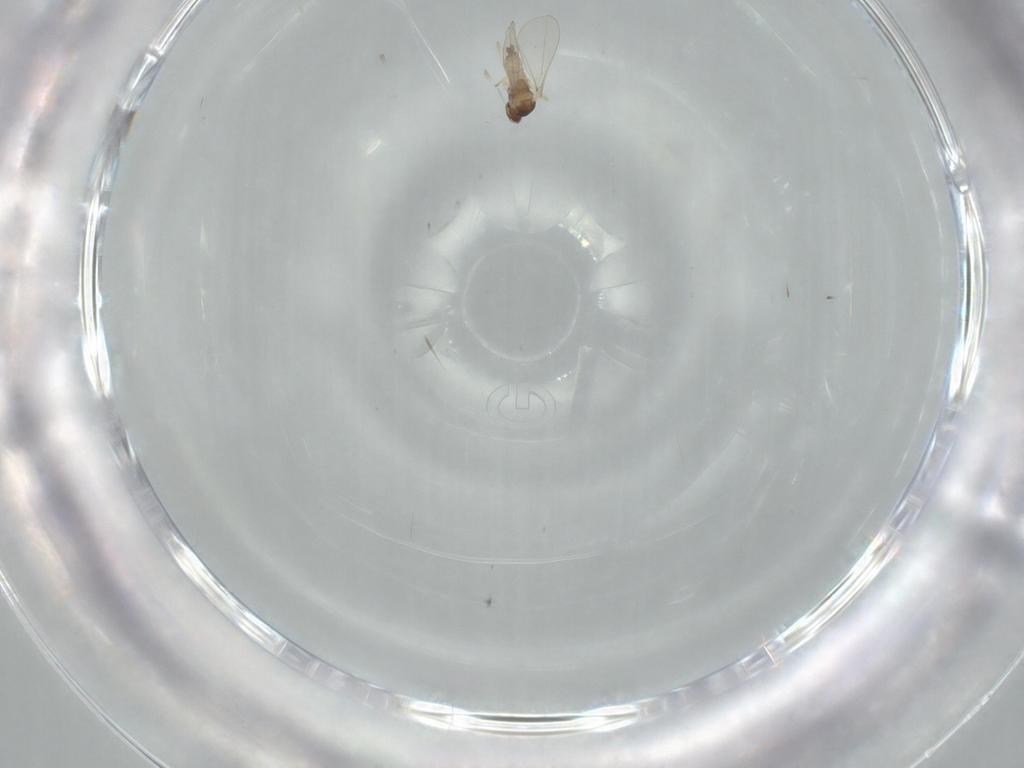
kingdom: Animalia
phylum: Arthropoda
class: Insecta
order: Diptera
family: Cecidomyiidae
